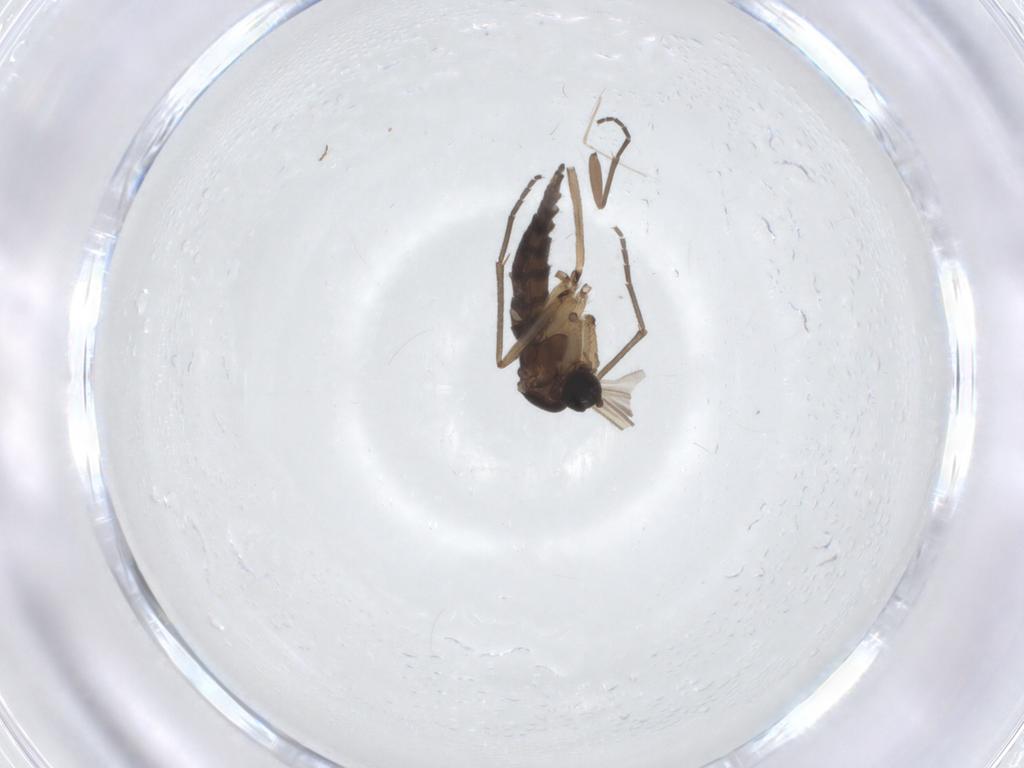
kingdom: Animalia
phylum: Arthropoda
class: Insecta
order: Diptera
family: Sciaridae
